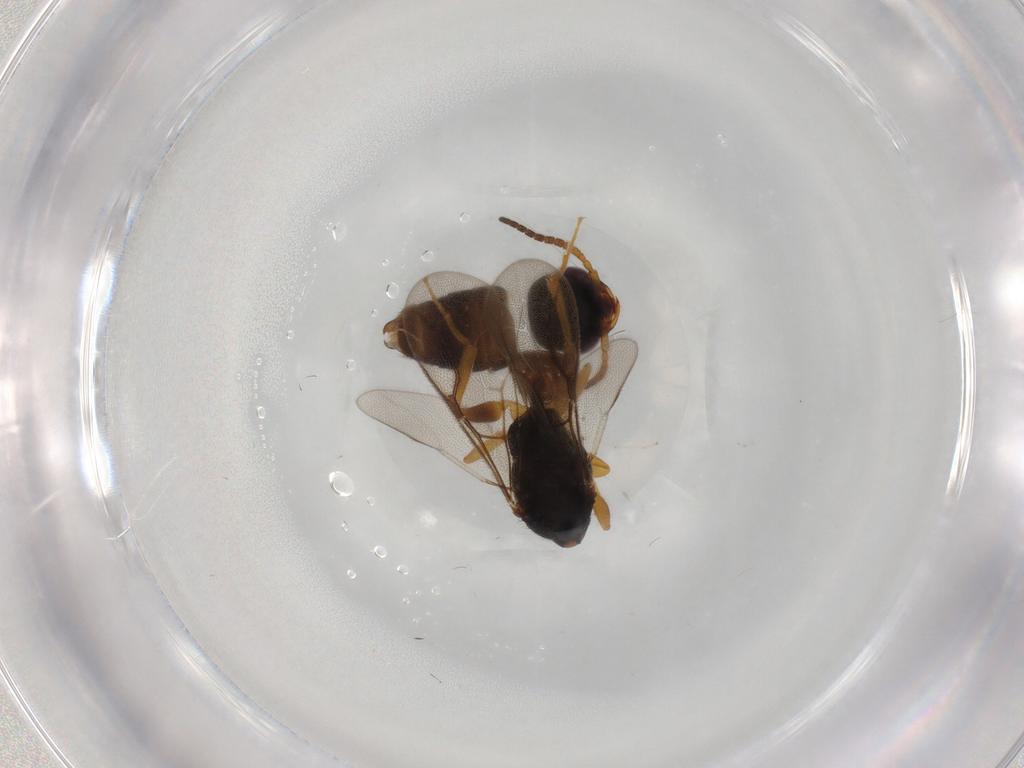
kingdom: Animalia
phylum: Arthropoda
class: Insecta
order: Hymenoptera
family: Bethylidae
